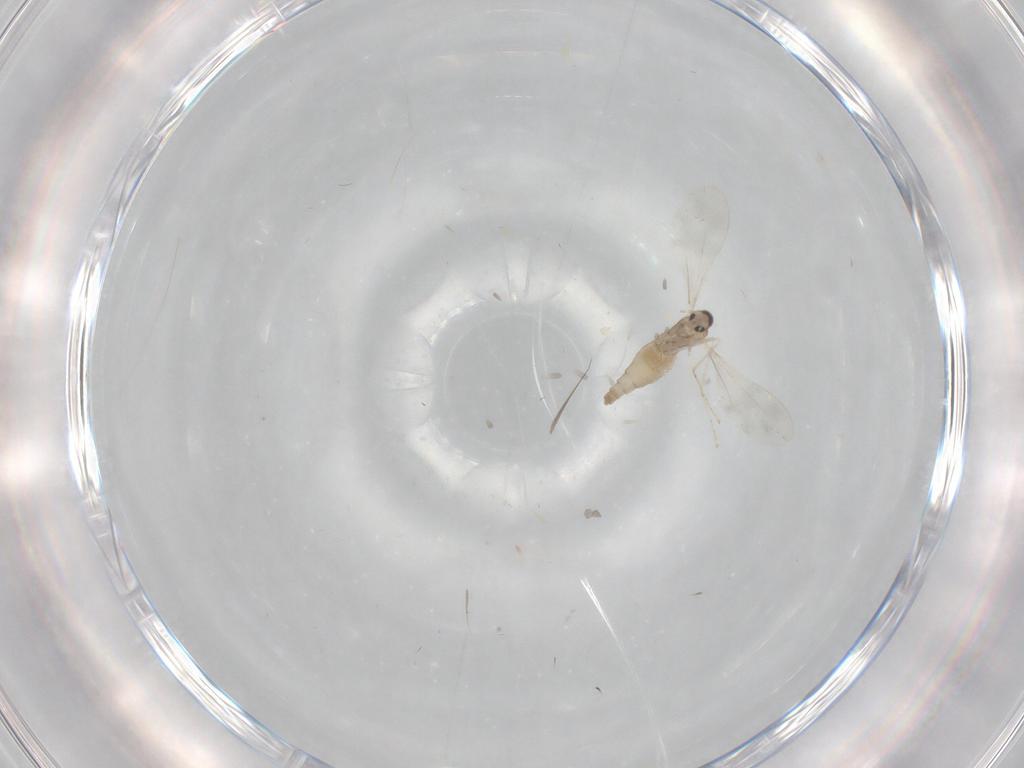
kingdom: Animalia
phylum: Arthropoda
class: Insecta
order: Diptera
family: Cecidomyiidae
